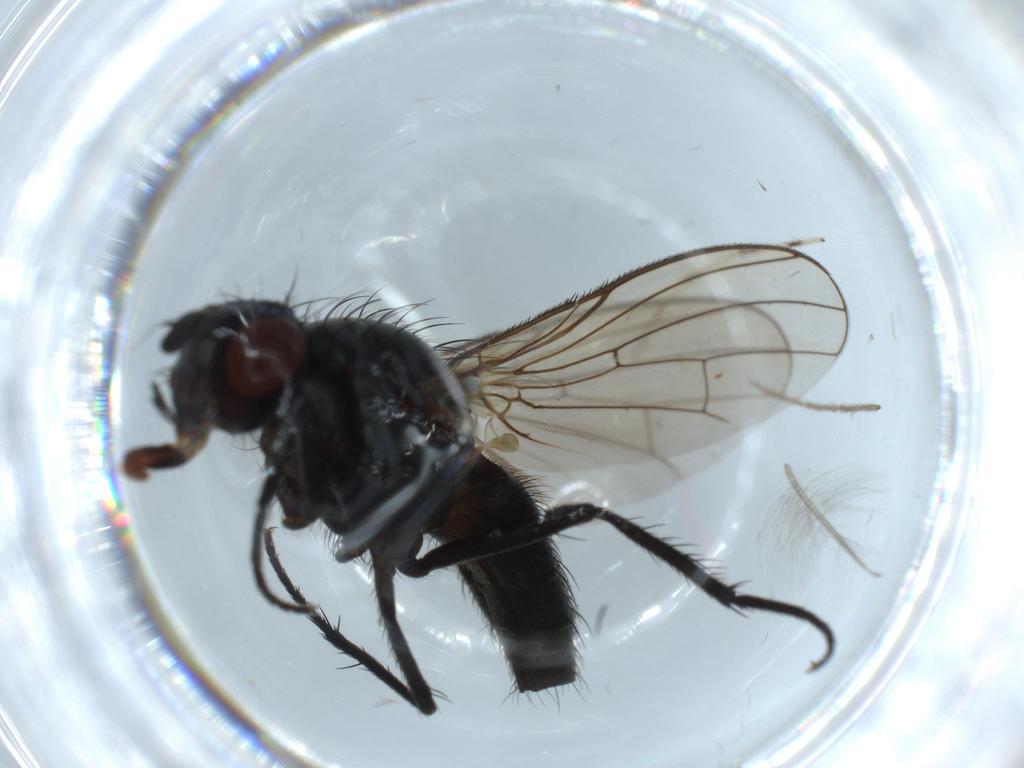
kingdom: Animalia
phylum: Arthropoda
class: Insecta
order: Diptera
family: Anthomyiidae
